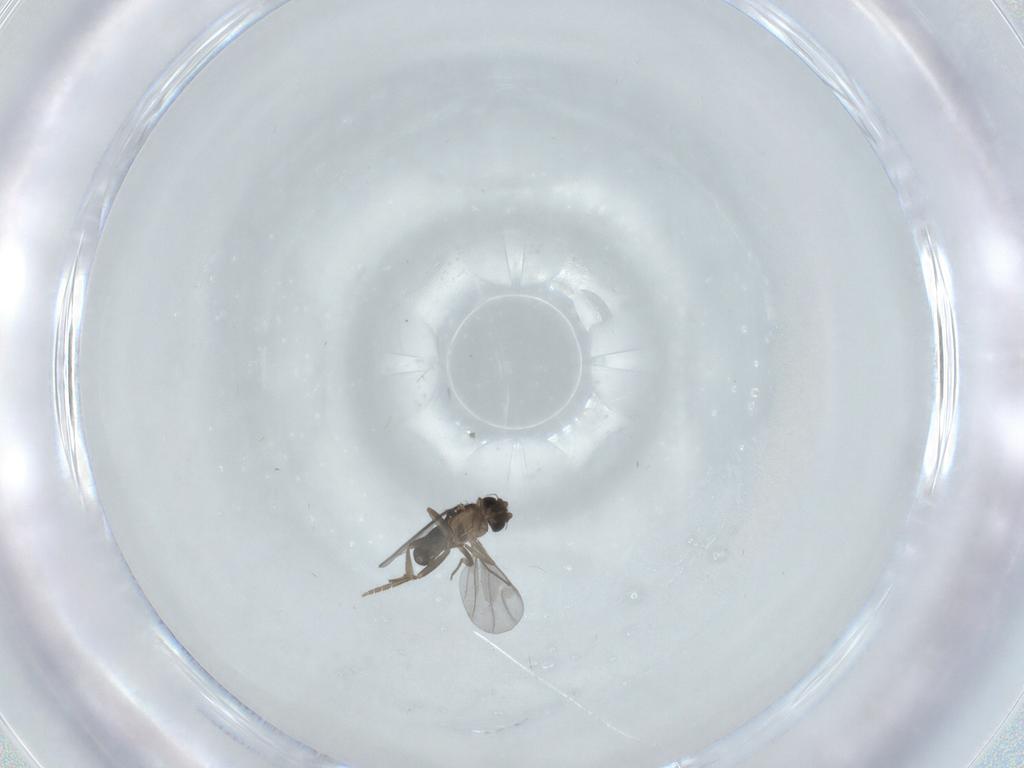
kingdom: Animalia
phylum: Arthropoda
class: Insecta
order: Diptera
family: Phoridae
